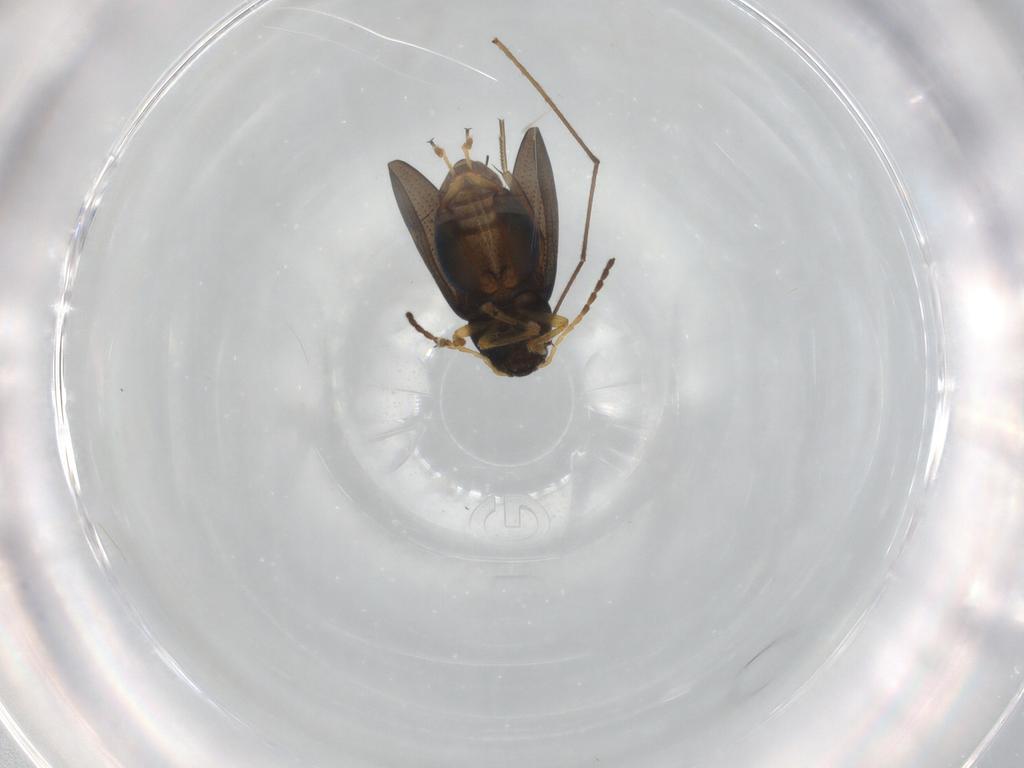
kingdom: Animalia
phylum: Arthropoda
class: Insecta
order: Coleoptera
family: Chrysomelidae
